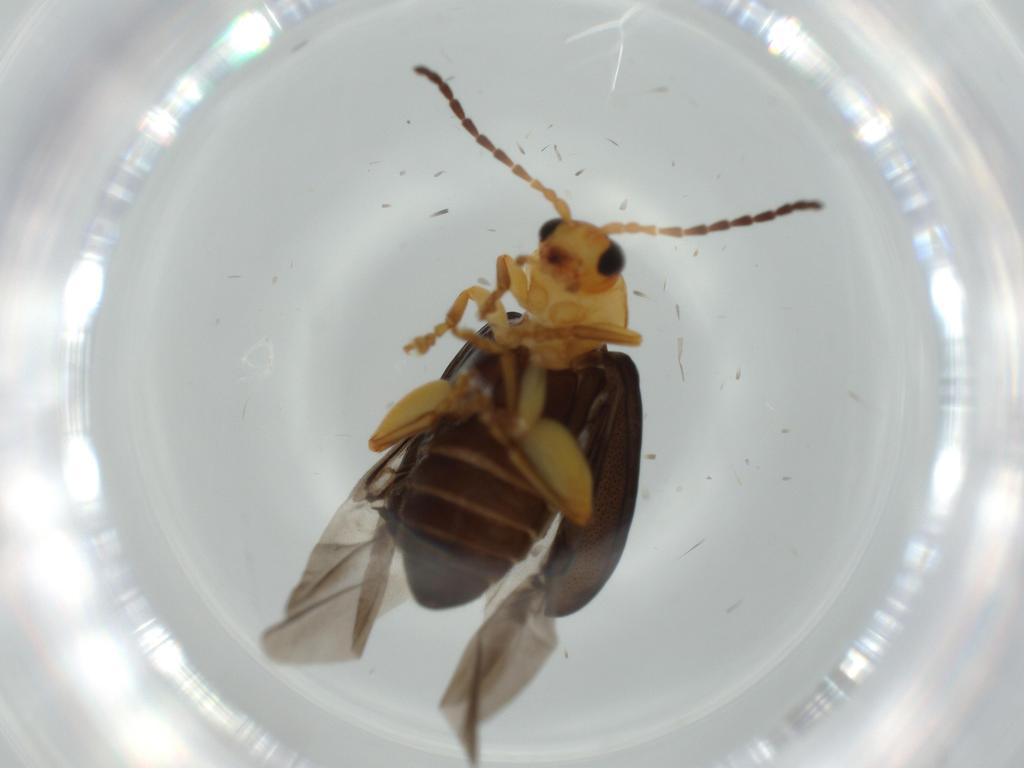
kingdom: Animalia
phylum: Arthropoda
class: Insecta
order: Coleoptera
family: Chrysomelidae
